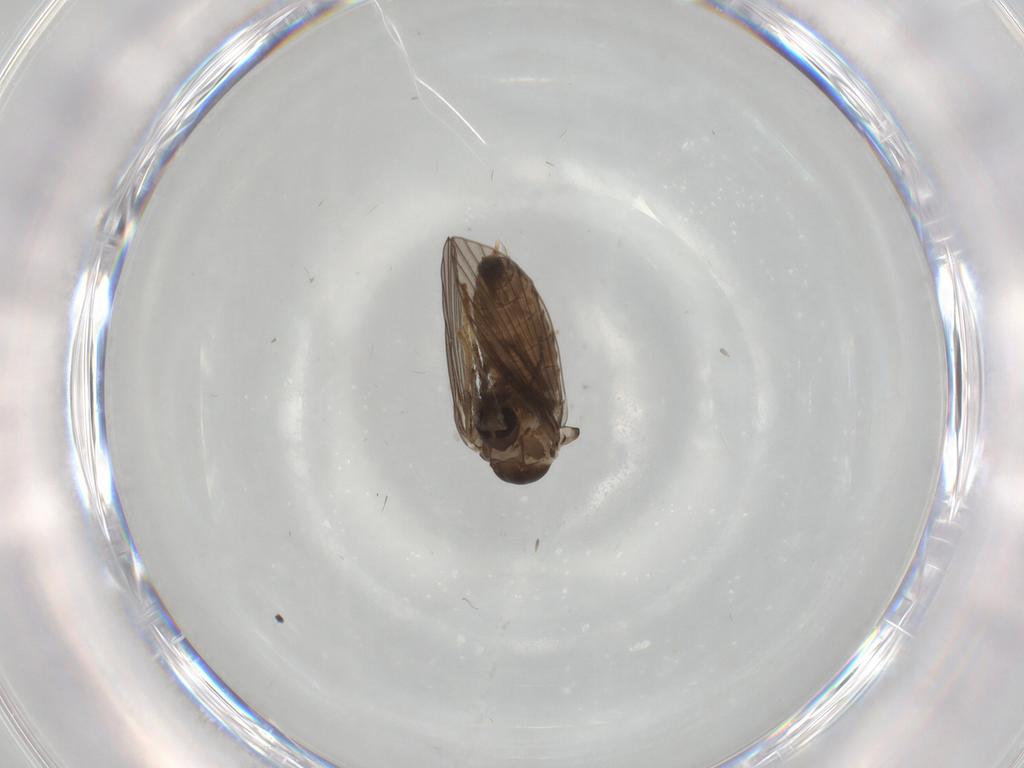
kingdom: Animalia
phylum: Arthropoda
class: Insecta
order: Diptera
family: Psychodidae
